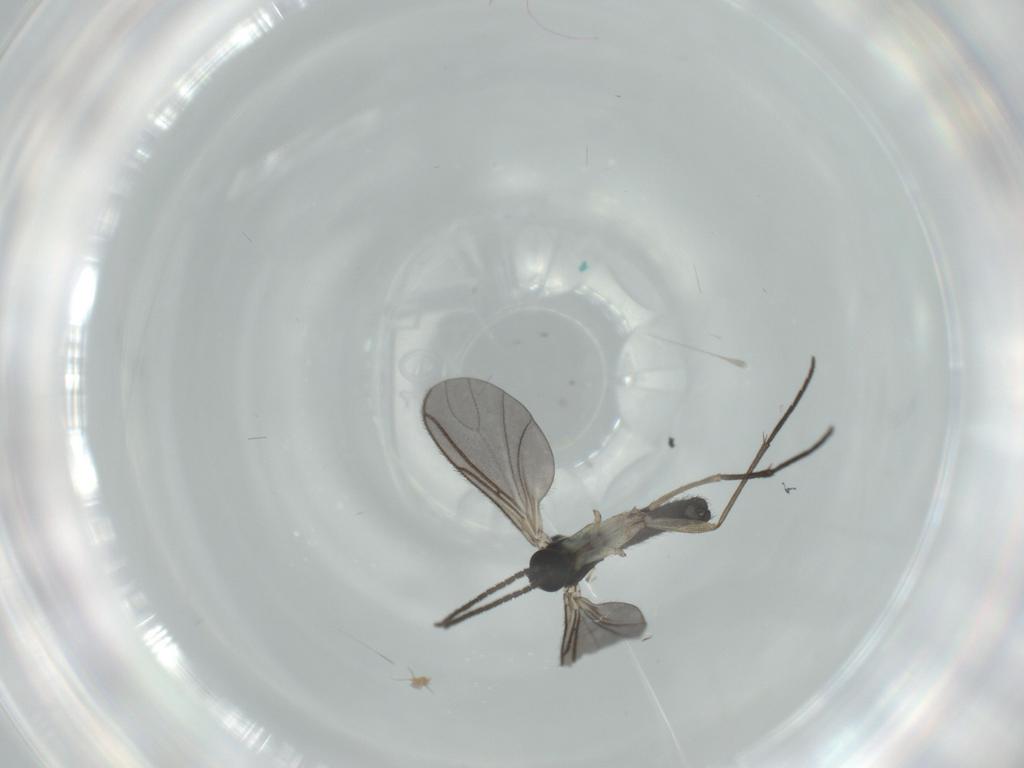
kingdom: Animalia
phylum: Arthropoda
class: Insecta
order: Diptera
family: Sciaridae
